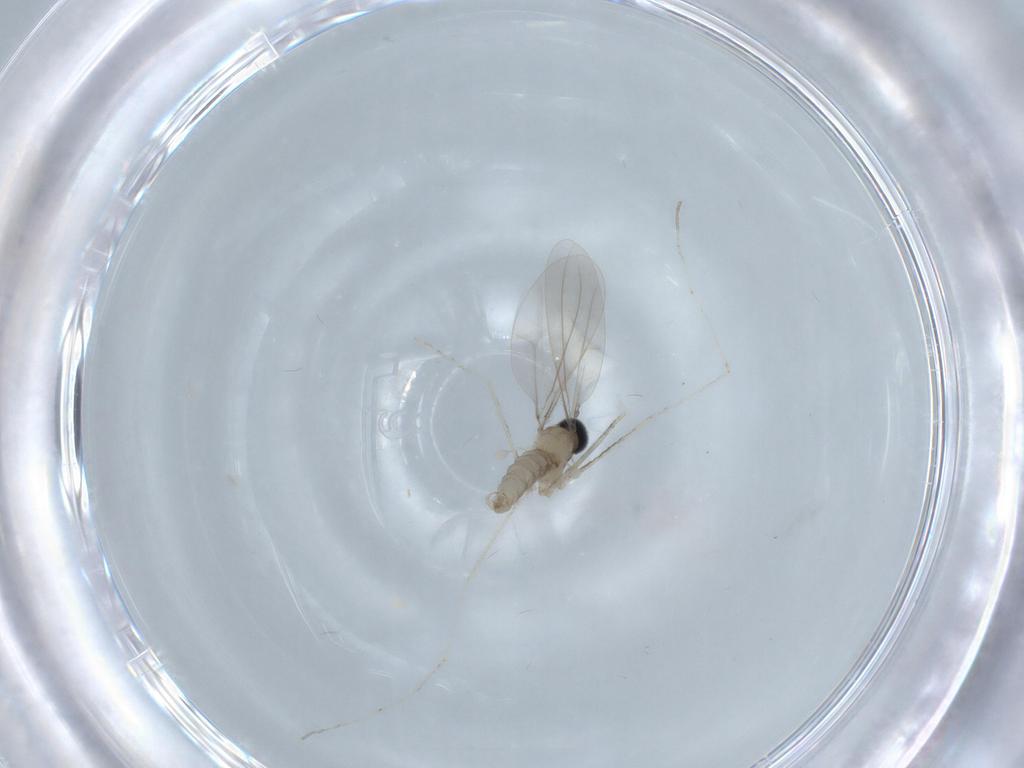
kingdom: Animalia
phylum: Arthropoda
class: Insecta
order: Diptera
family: Cecidomyiidae
